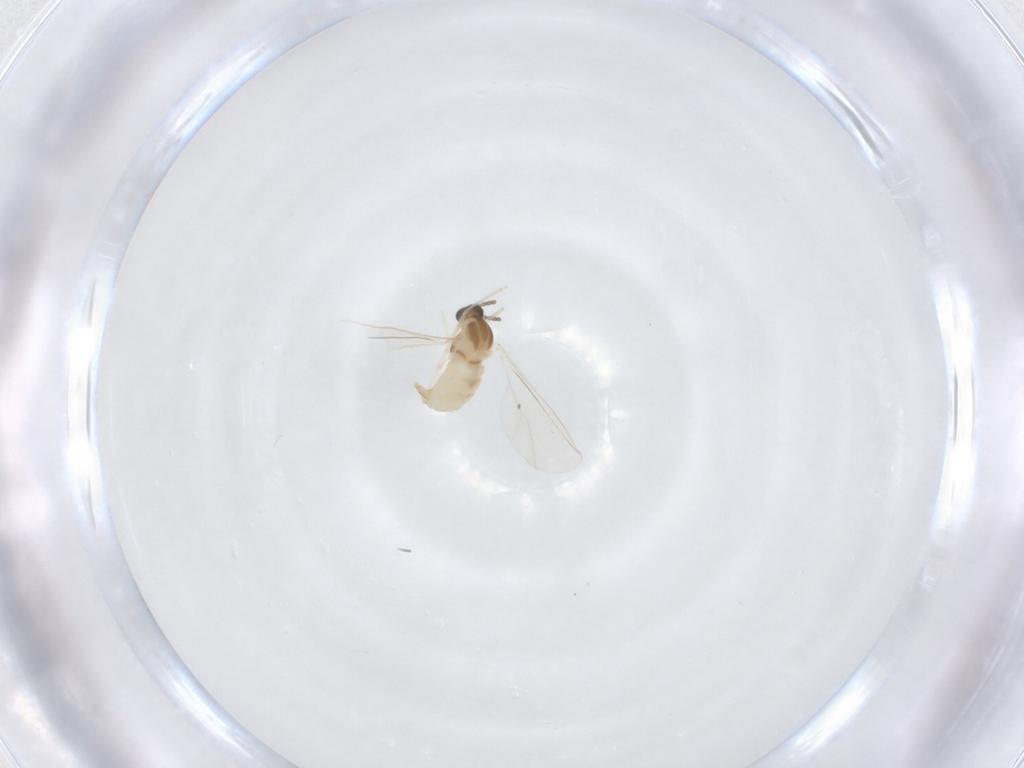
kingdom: Animalia
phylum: Arthropoda
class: Insecta
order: Diptera
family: Cecidomyiidae
